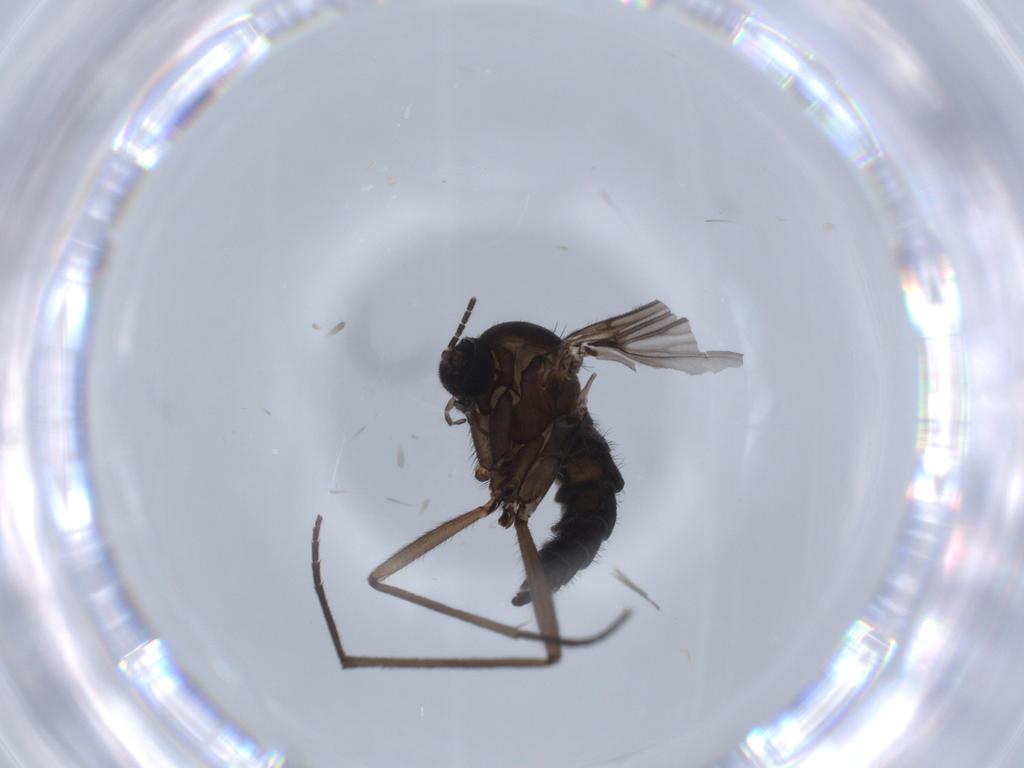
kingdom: Animalia
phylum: Arthropoda
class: Insecta
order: Diptera
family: Sciaridae
